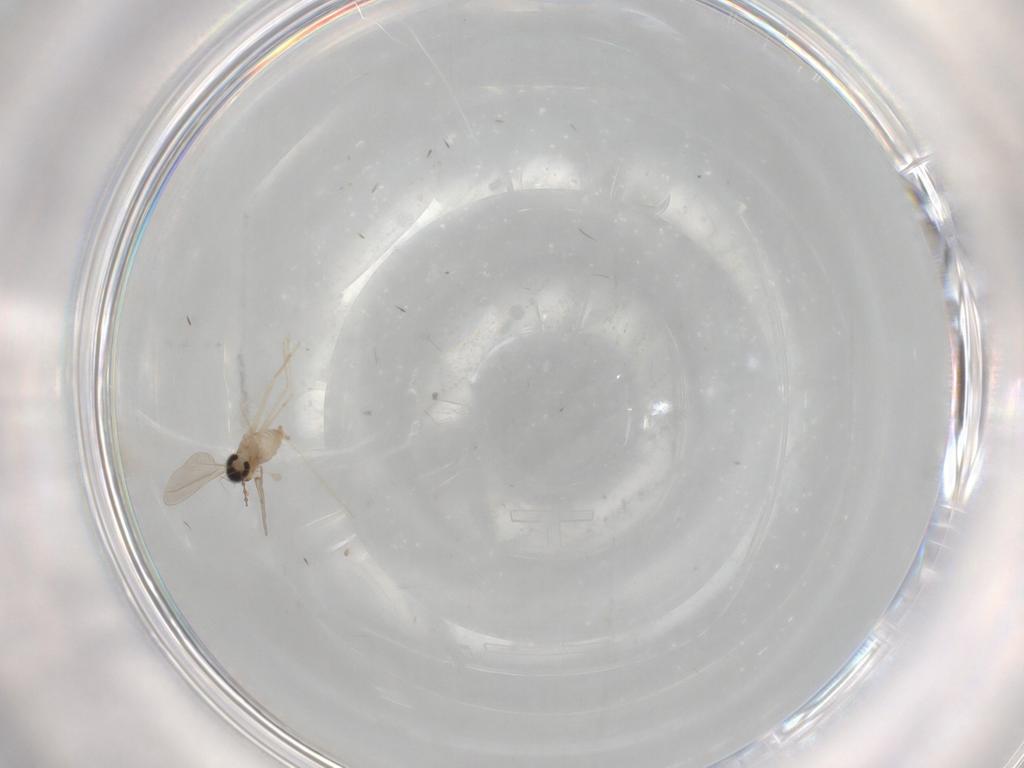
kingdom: Animalia
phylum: Arthropoda
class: Insecta
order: Diptera
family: Cecidomyiidae
